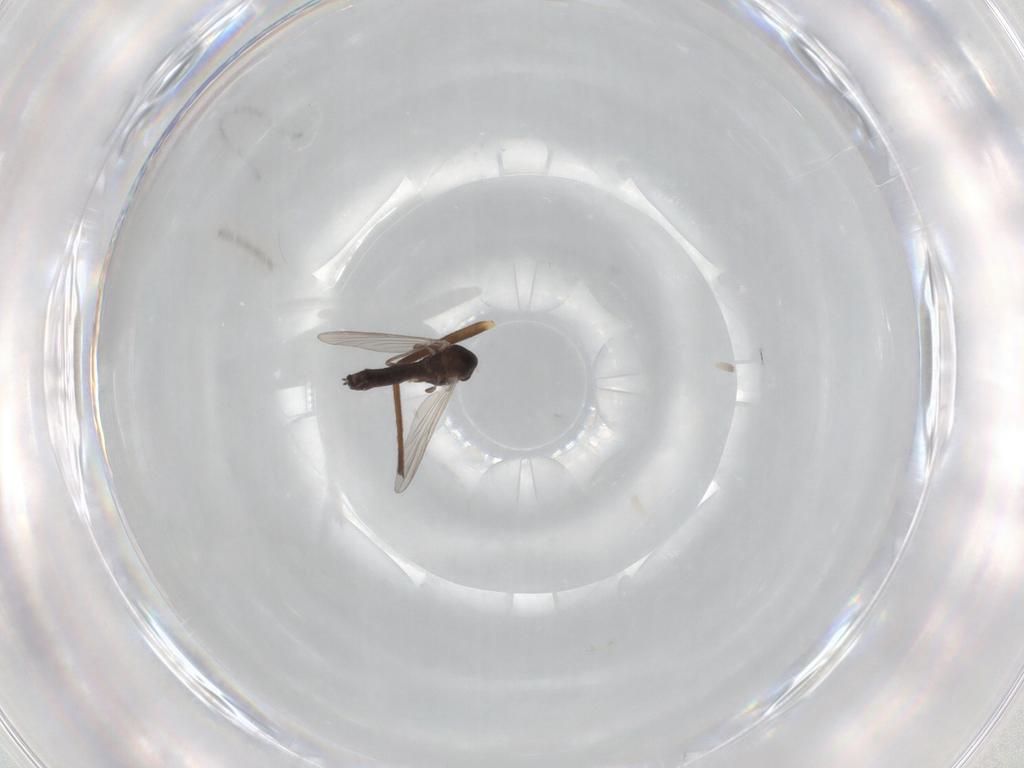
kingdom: Animalia
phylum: Arthropoda
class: Insecta
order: Diptera
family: Chironomidae
